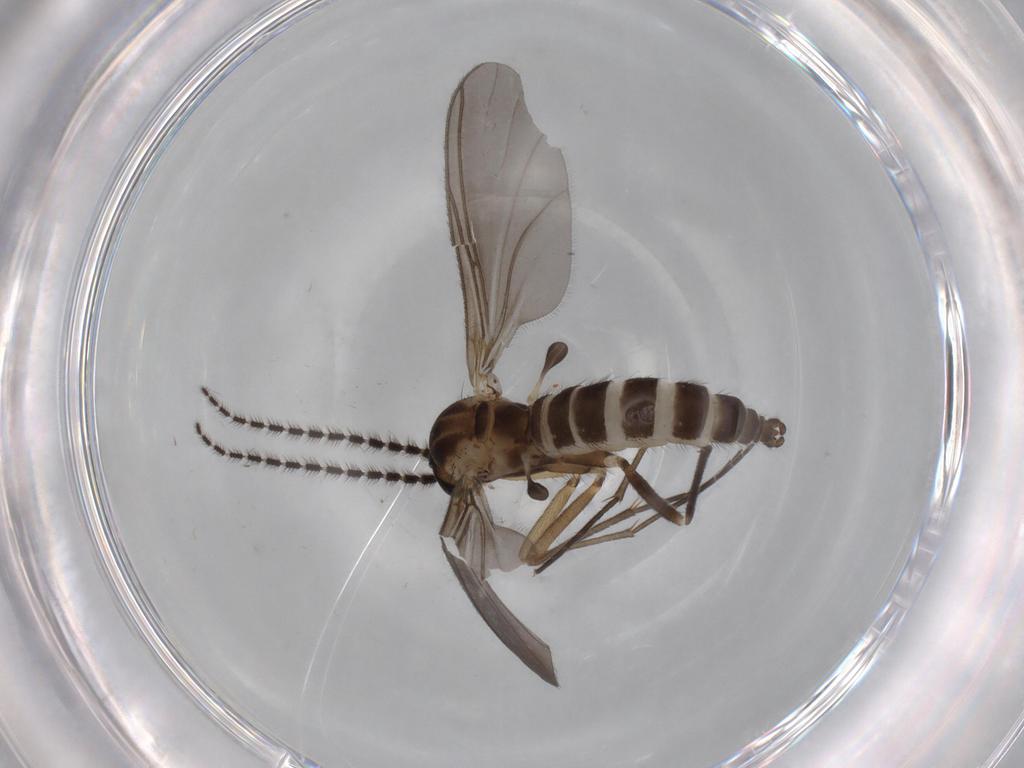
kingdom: Animalia
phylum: Arthropoda
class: Insecta
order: Diptera
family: Sciaridae
